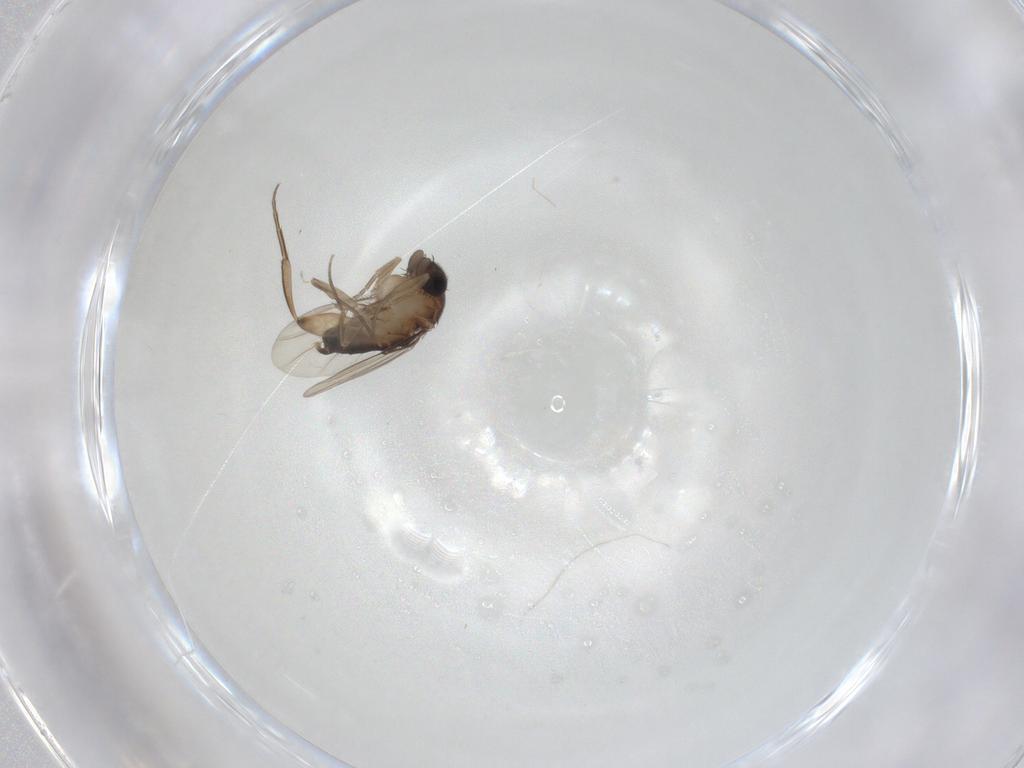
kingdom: Animalia
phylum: Arthropoda
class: Insecta
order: Diptera
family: Phoridae
